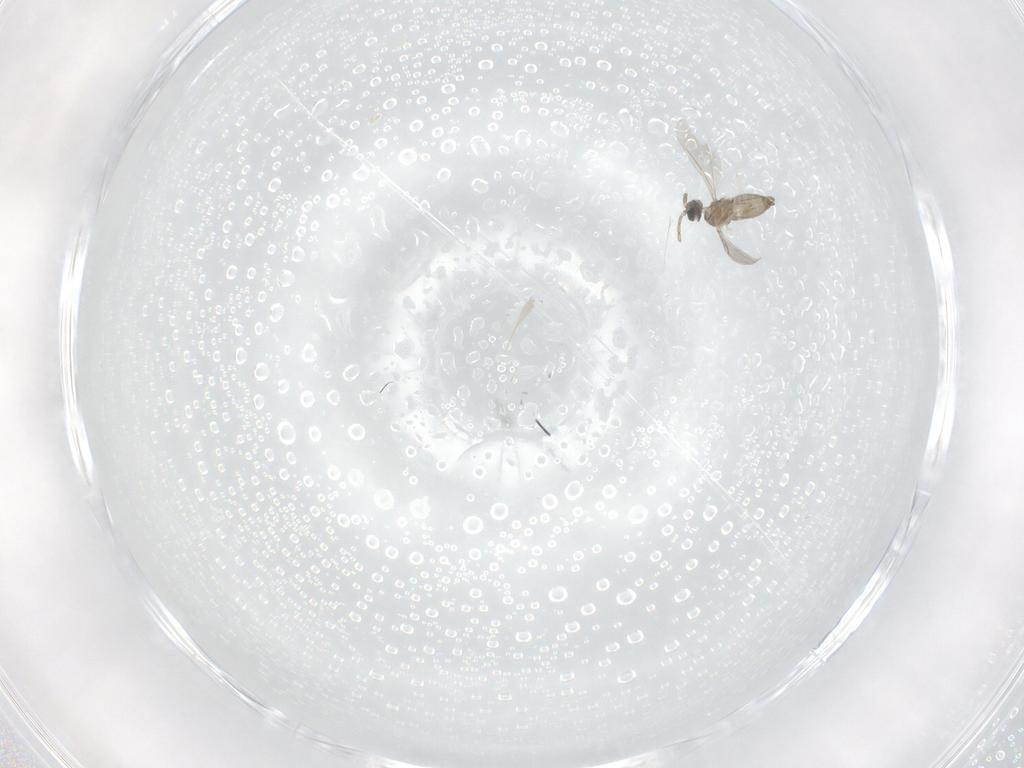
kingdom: Animalia
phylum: Arthropoda
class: Insecta
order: Diptera
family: Cecidomyiidae
